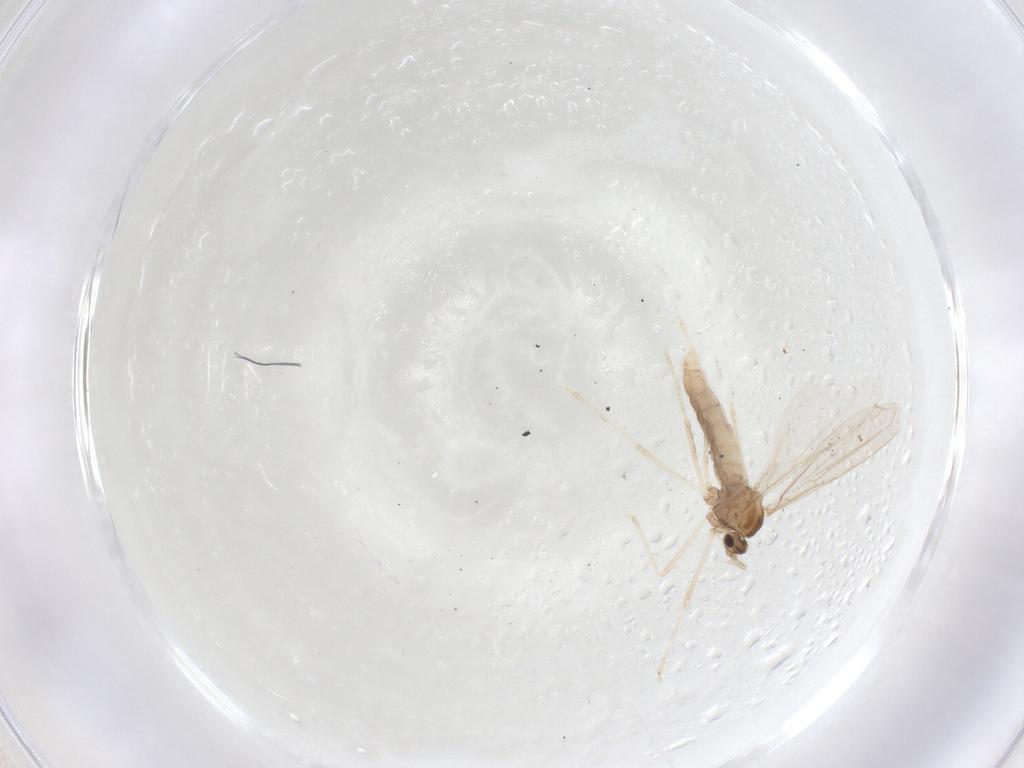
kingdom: Animalia
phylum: Arthropoda
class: Insecta
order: Diptera
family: Cecidomyiidae
